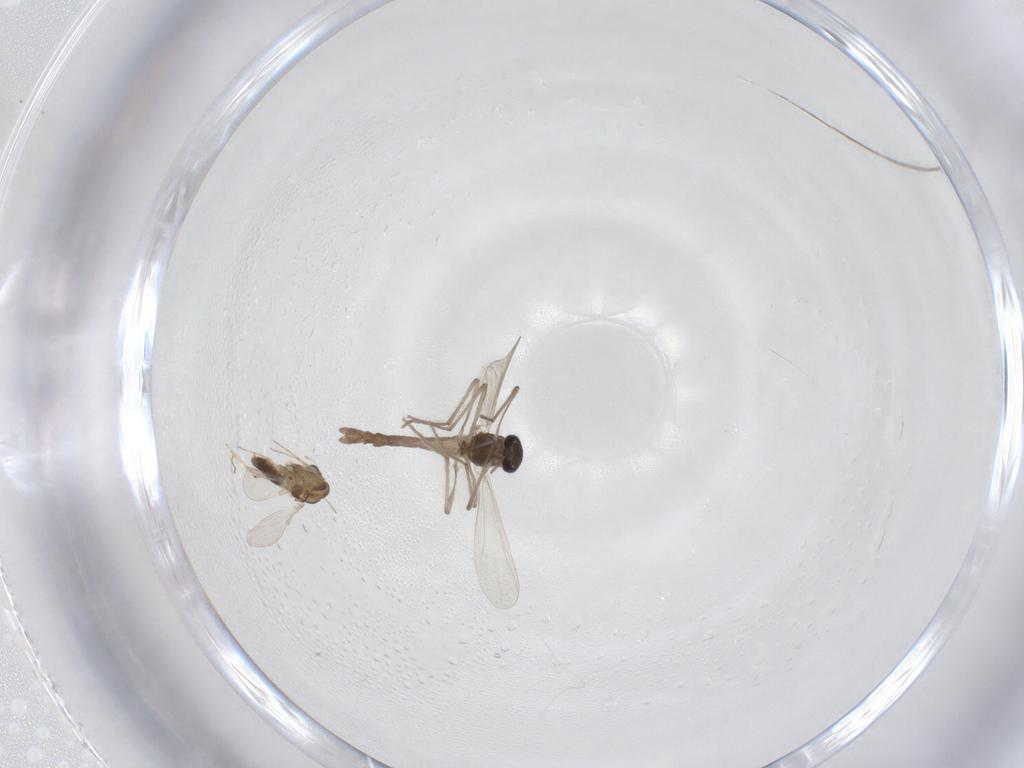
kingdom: Animalia
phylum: Arthropoda
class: Insecta
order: Diptera
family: Chironomidae
